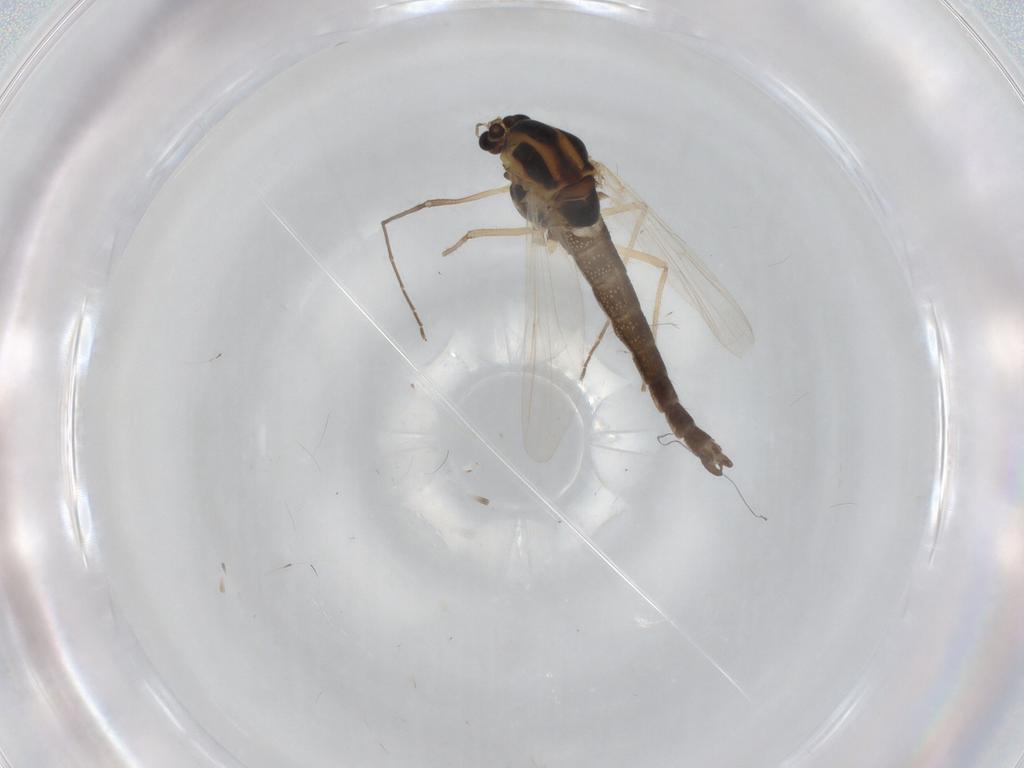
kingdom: Animalia
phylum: Arthropoda
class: Insecta
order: Diptera
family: Chironomidae
